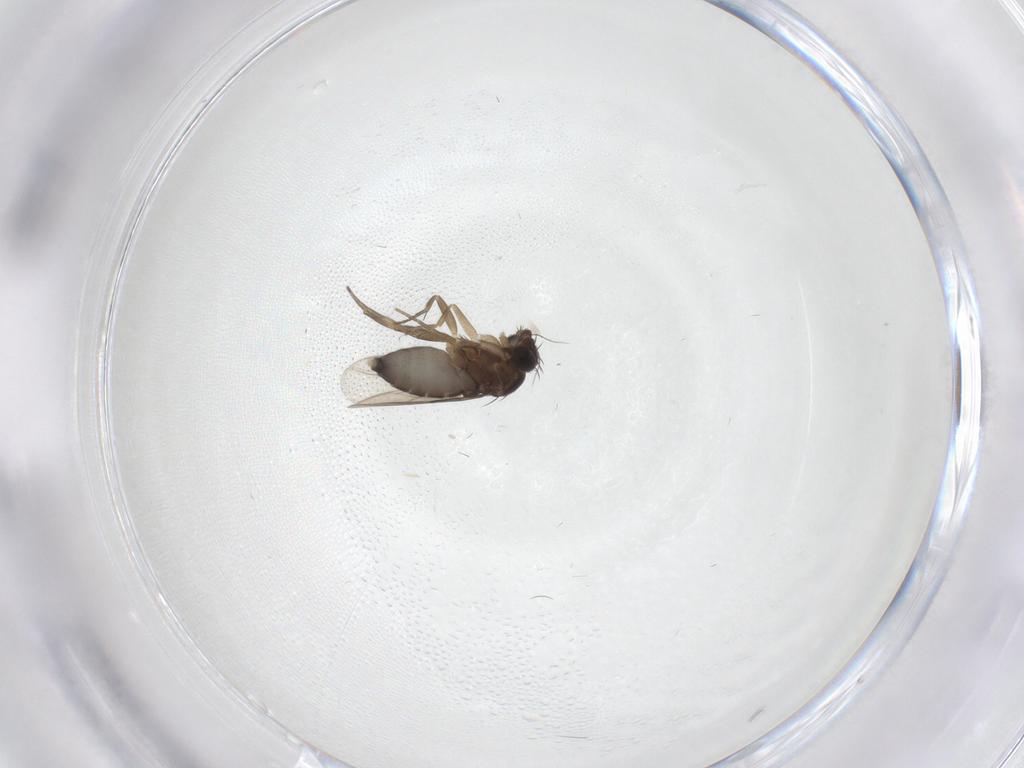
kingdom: Animalia
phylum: Arthropoda
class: Insecta
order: Diptera
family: Phoridae
